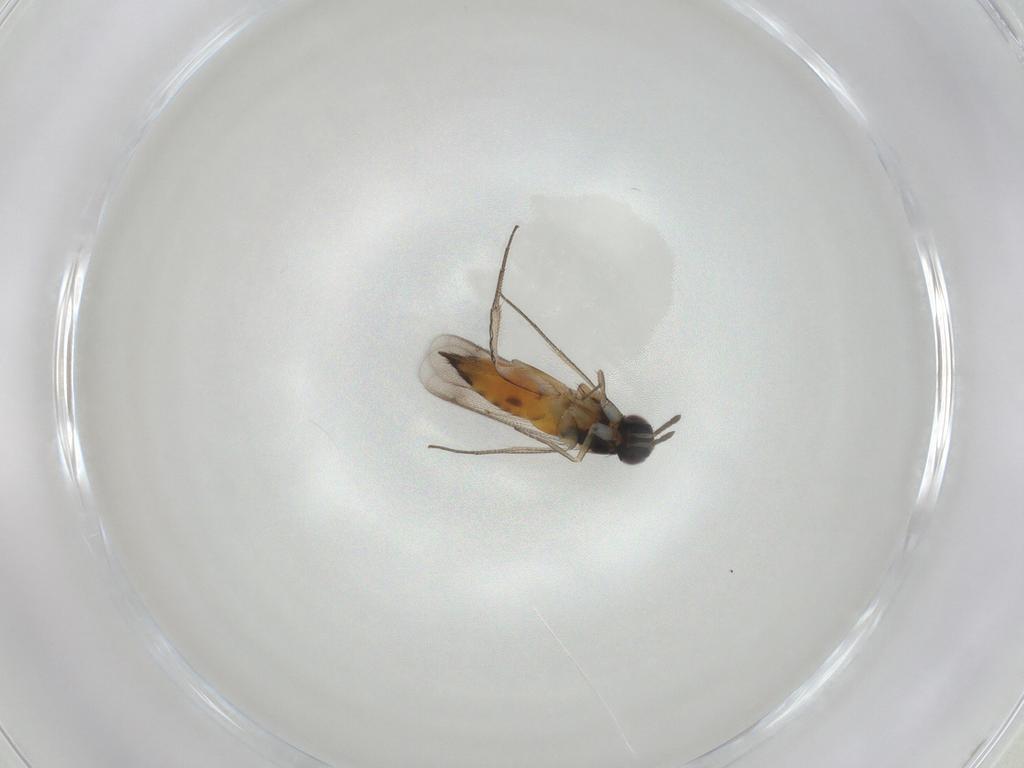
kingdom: Animalia
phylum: Arthropoda
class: Insecta
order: Hymenoptera
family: Eulophidae
